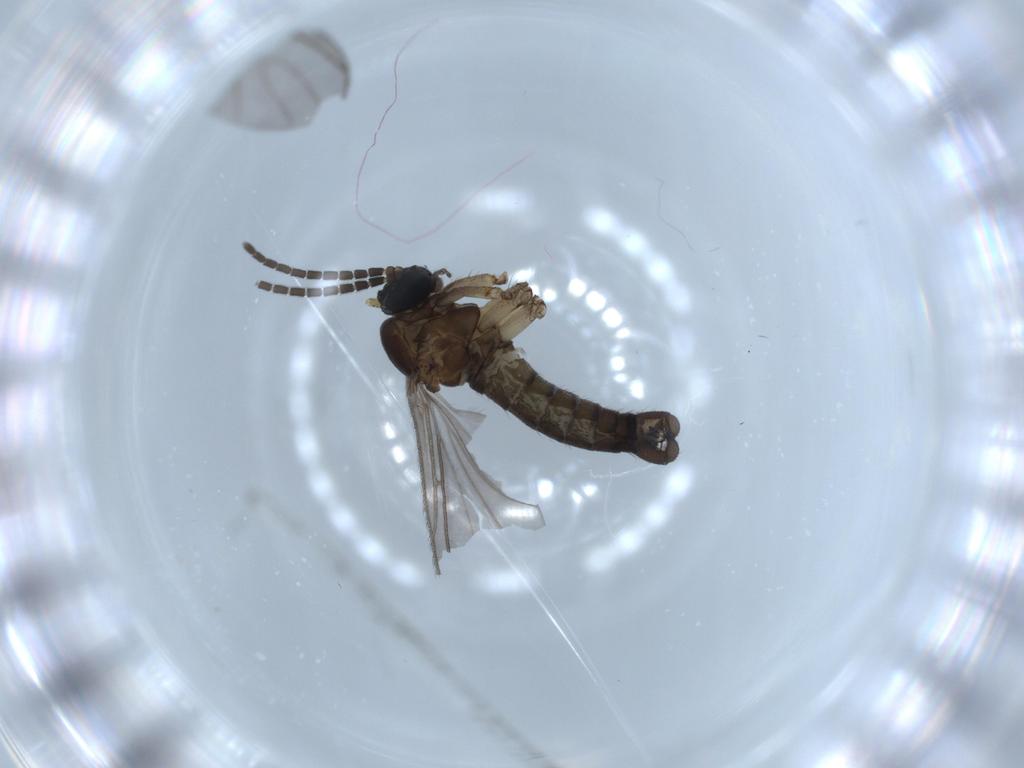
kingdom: Animalia
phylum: Arthropoda
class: Insecta
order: Diptera
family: Sciaridae
